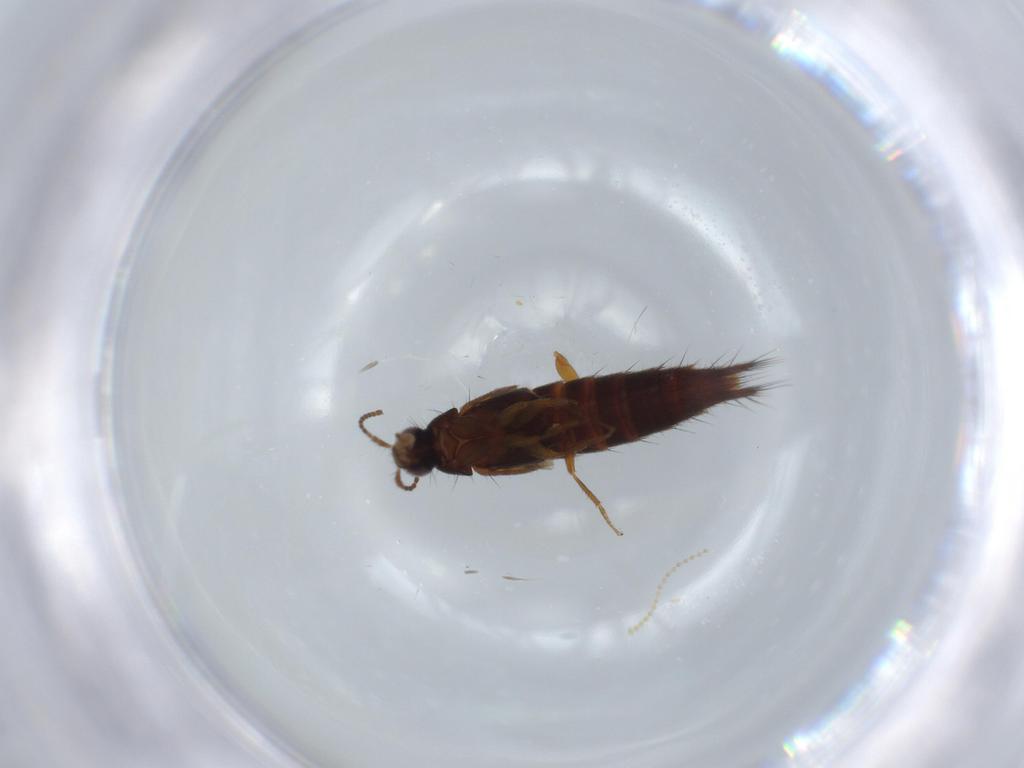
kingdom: Animalia
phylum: Arthropoda
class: Insecta
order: Coleoptera
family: Staphylinidae
